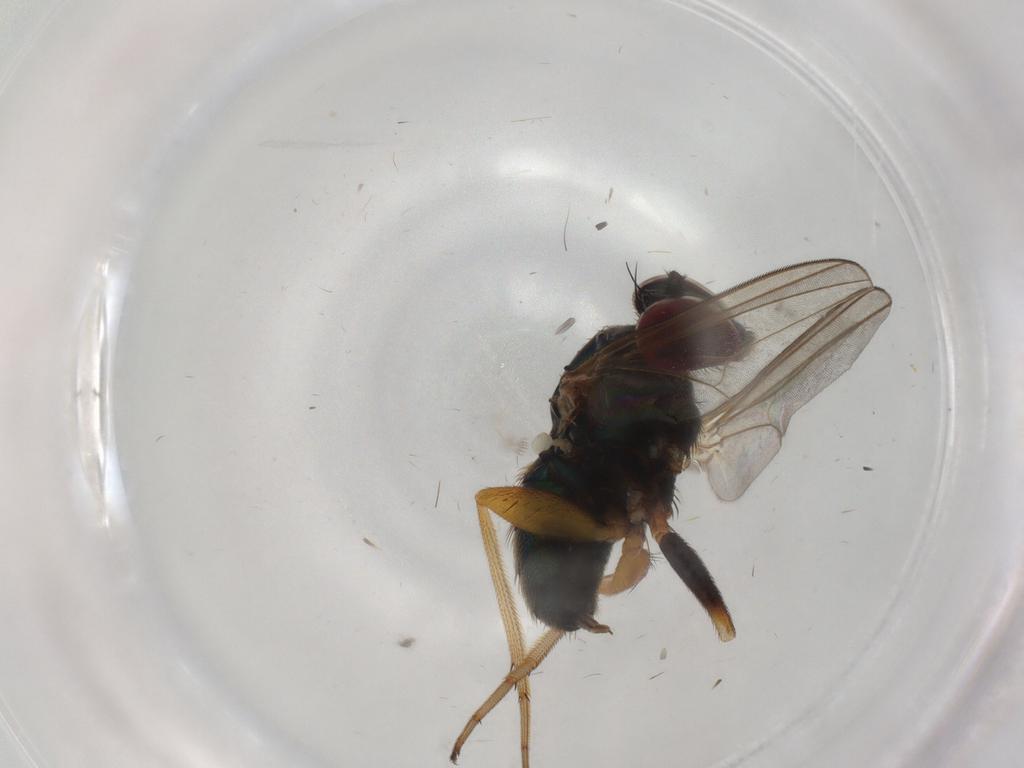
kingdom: Animalia
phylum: Arthropoda
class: Insecta
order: Diptera
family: Dolichopodidae
